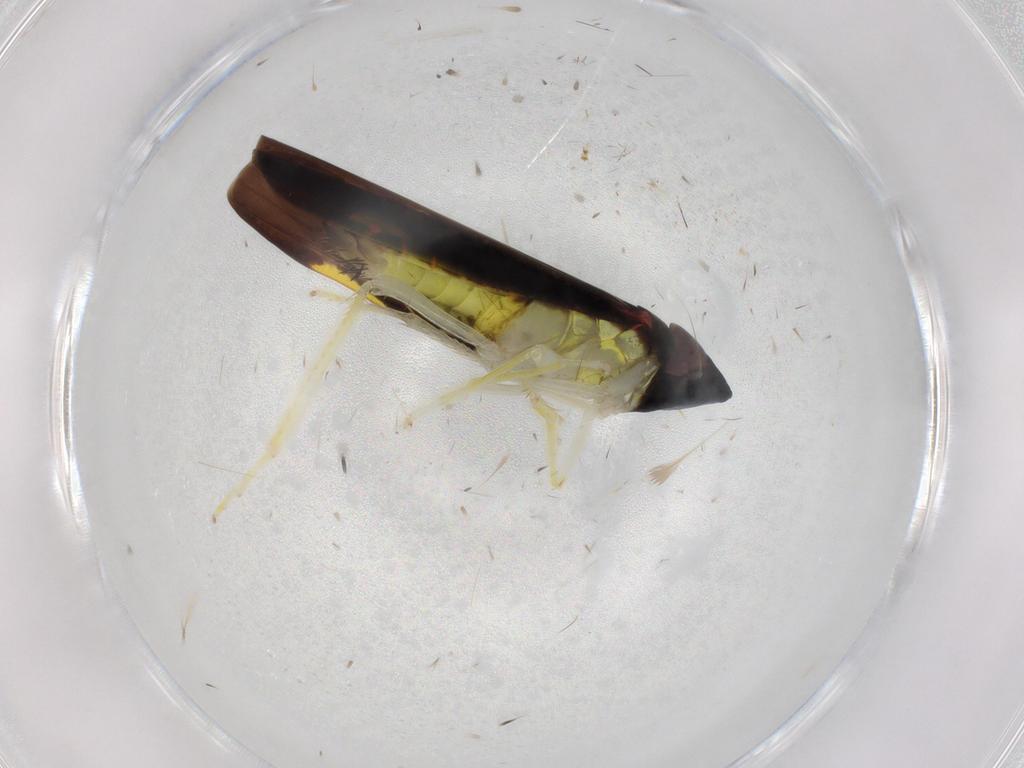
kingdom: Animalia
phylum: Arthropoda
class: Insecta
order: Hemiptera
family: Cicadellidae
